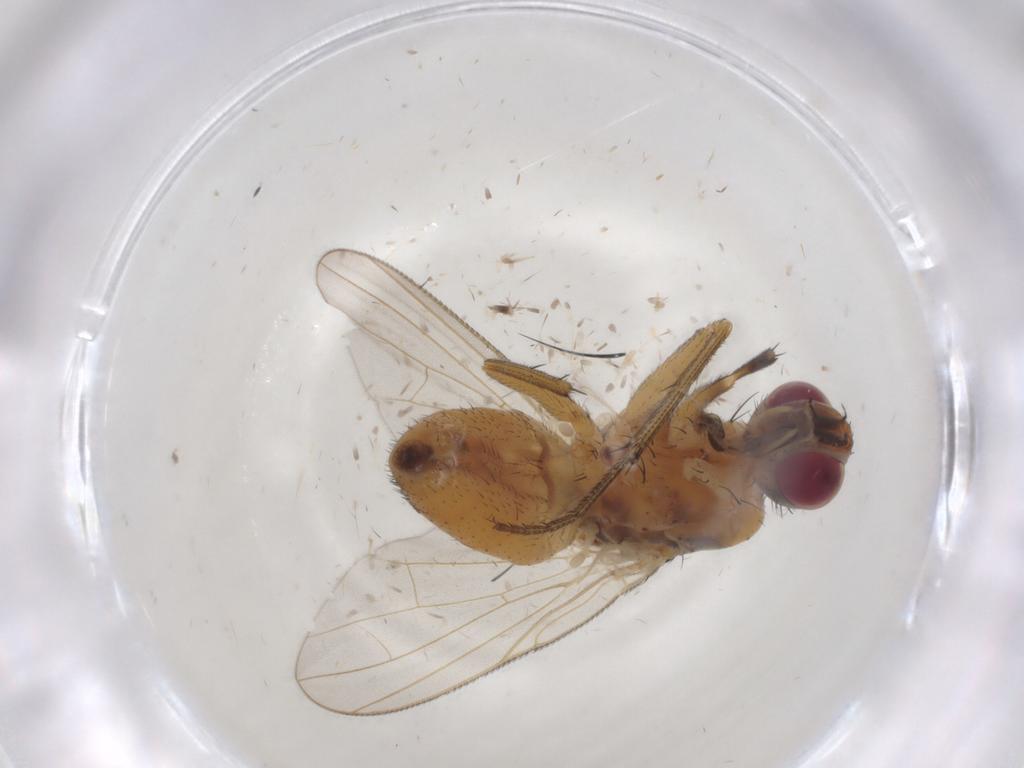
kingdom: Animalia
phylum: Arthropoda
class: Insecta
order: Diptera
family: Muscidae
